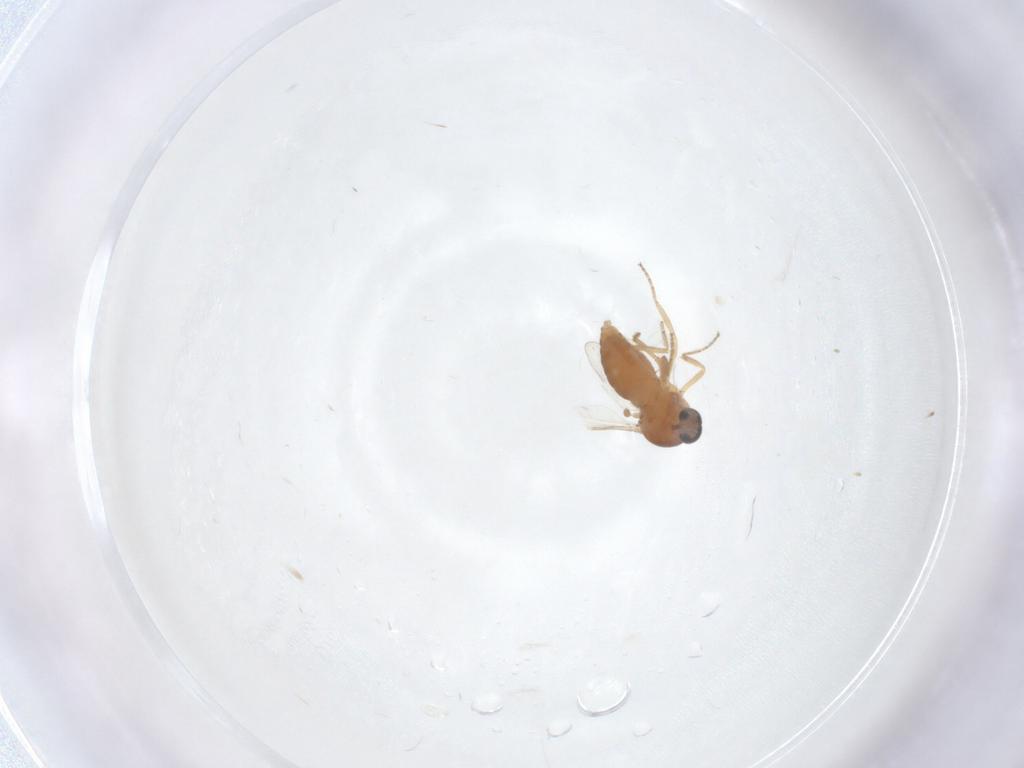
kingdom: Animalia
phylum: Arthropoda
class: Insecta
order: Diptera
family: Ceratopogonidae
